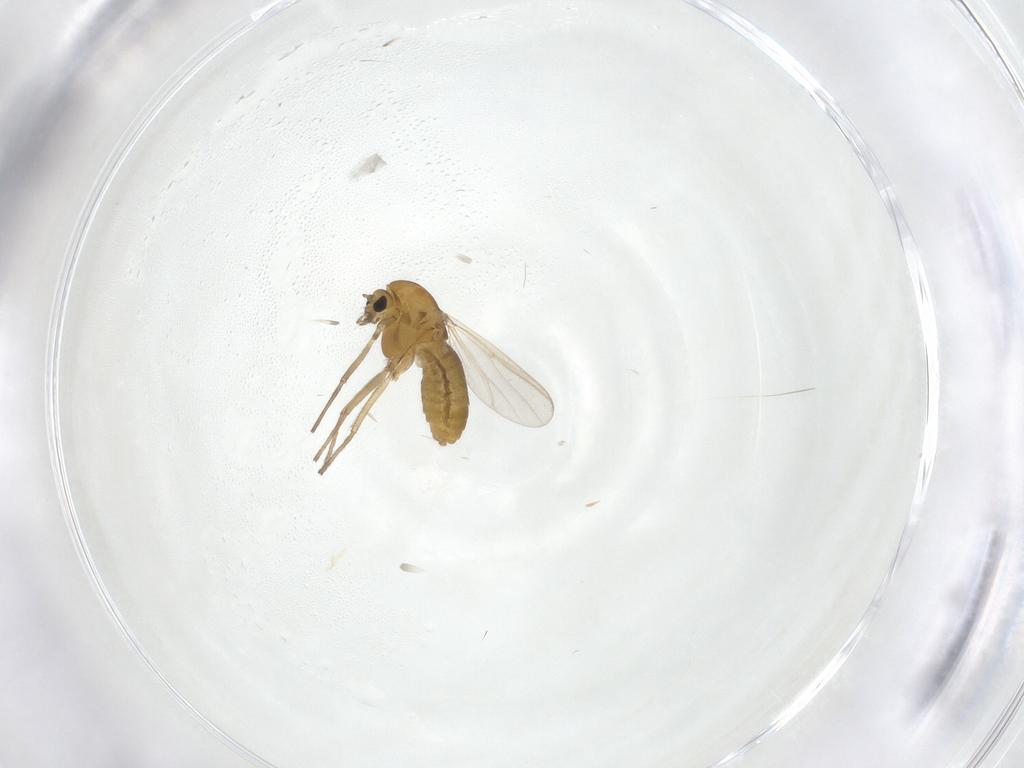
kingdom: Animalia
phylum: Arthropoda
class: Insecta
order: Diptera
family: Chironomidae
